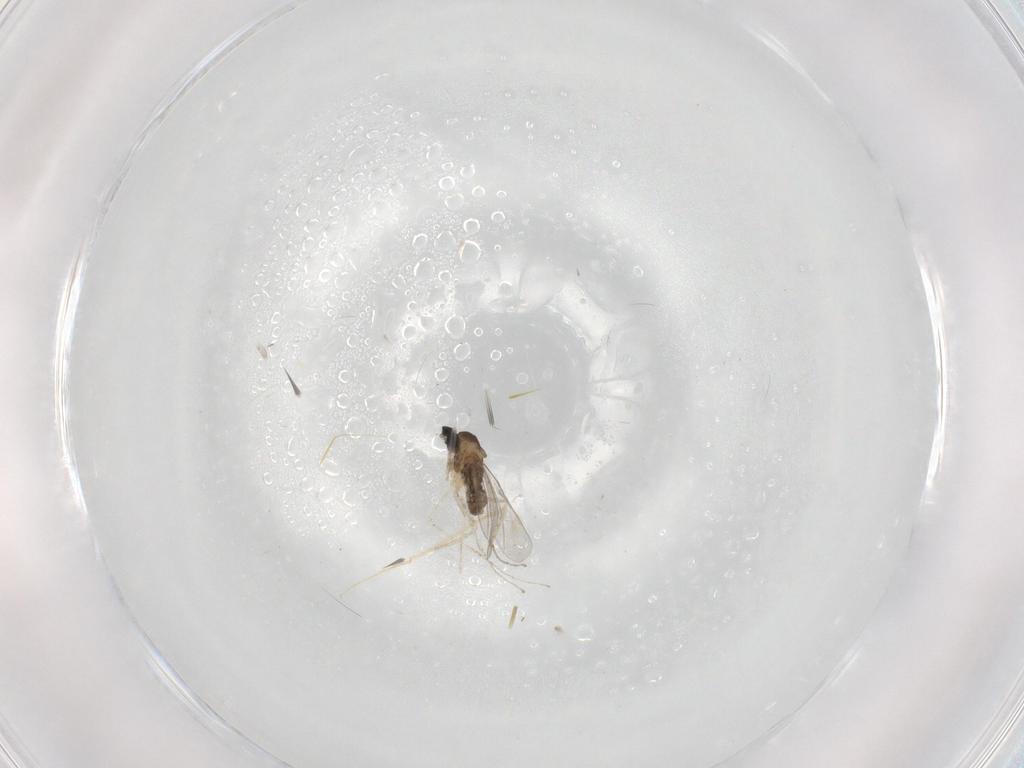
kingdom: Animalia
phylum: Arthropoda
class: Insecta
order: Diptera
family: Cecidomyiidae
